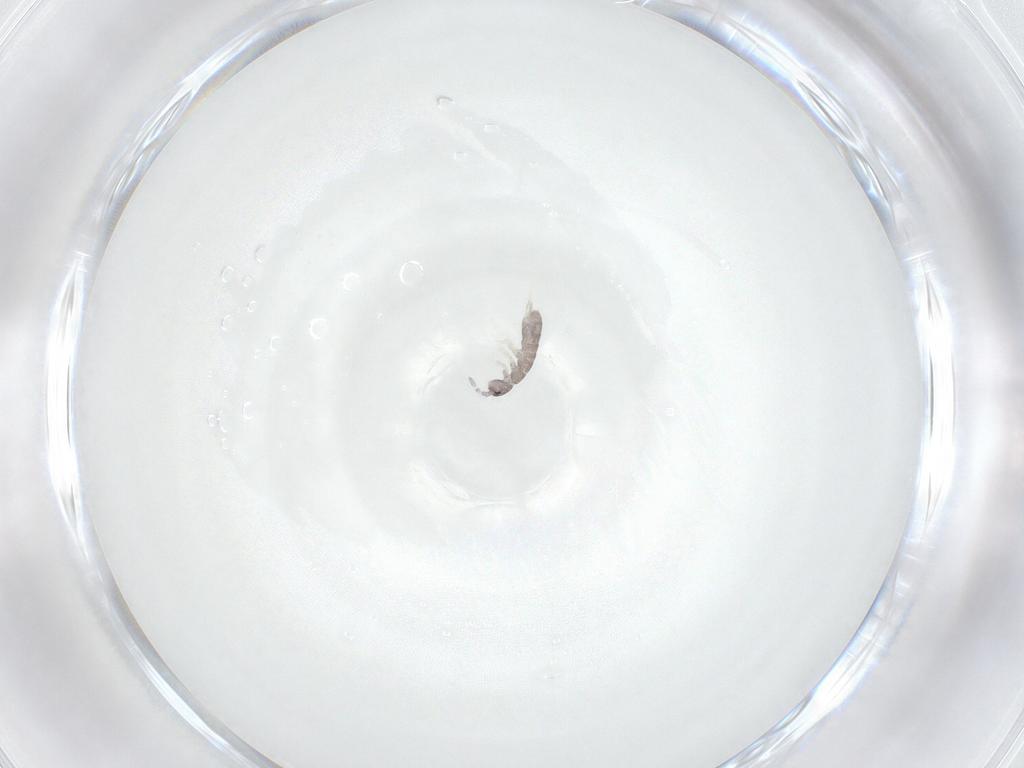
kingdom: Animalia
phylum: Arthropoda
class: Collembola
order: Entomobryomorpha
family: Isotomidae
